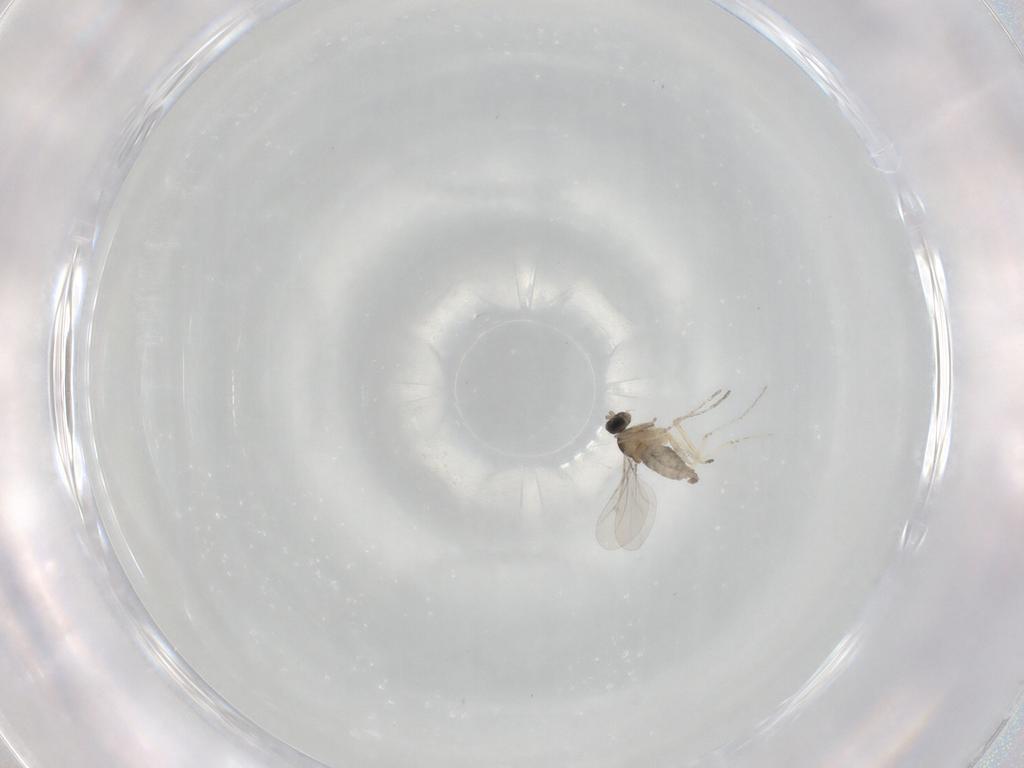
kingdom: Animalia
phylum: Arthropoda
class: Insecta
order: Diptera
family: Cecidomyiidae
